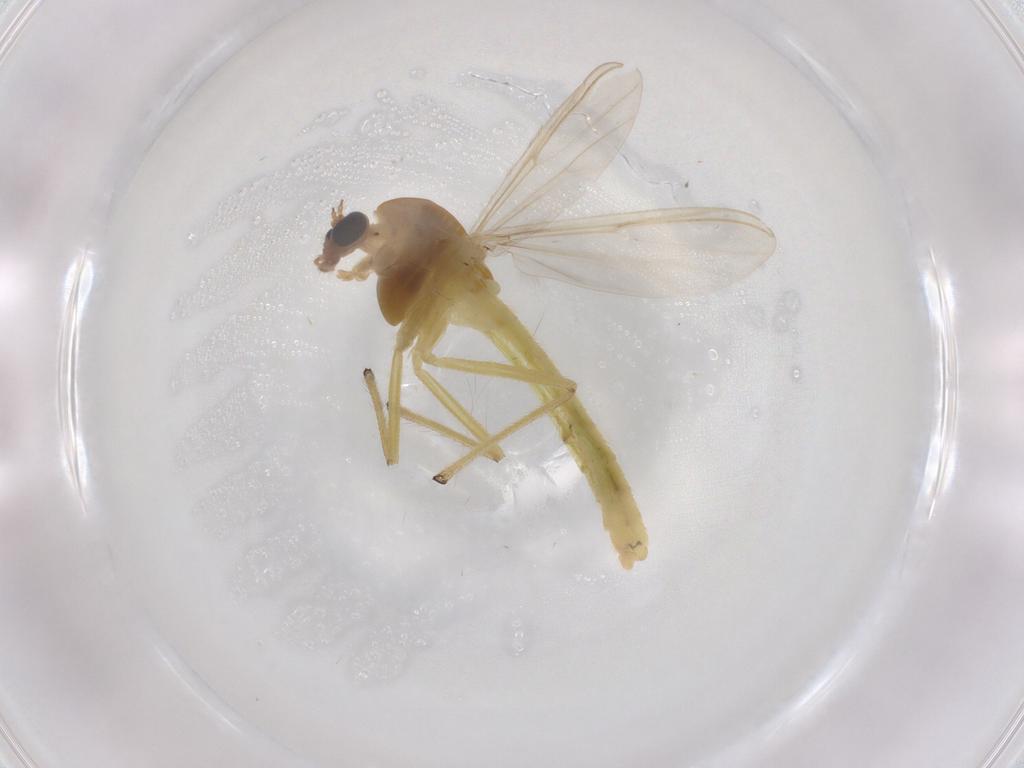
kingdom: Animalia
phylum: Arthropoda
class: Insecta
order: Diptera
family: Chironomidae
